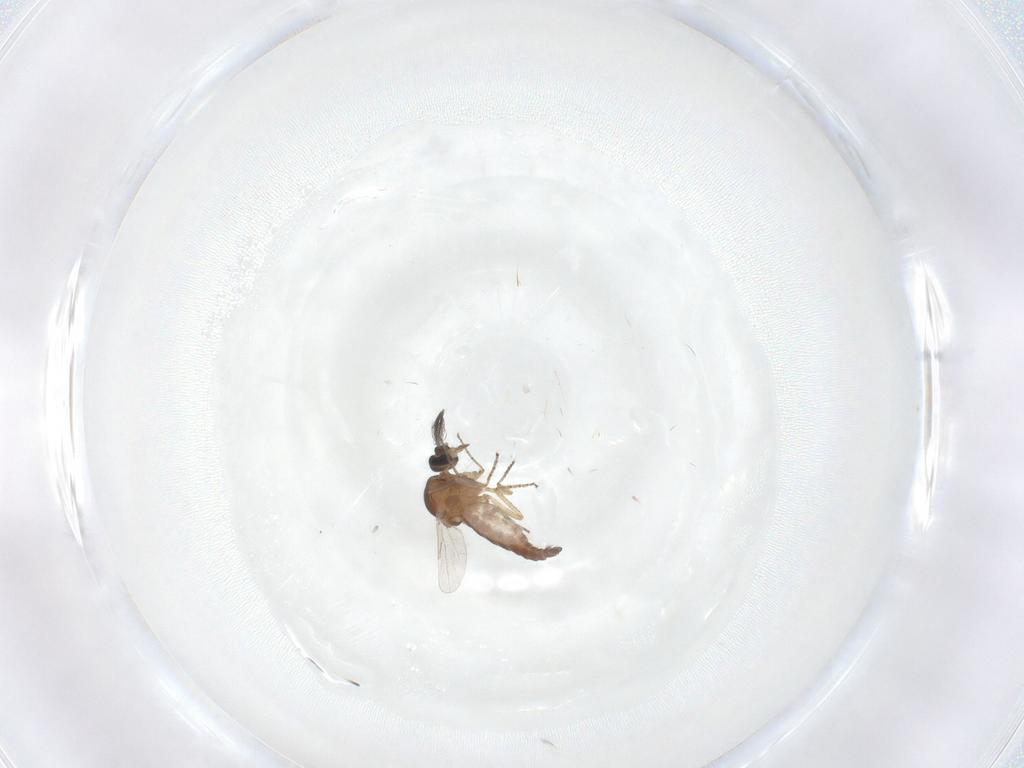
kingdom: Animalia
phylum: Arthropoda
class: Insecta
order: Diptera
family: Ceratopogonidae
